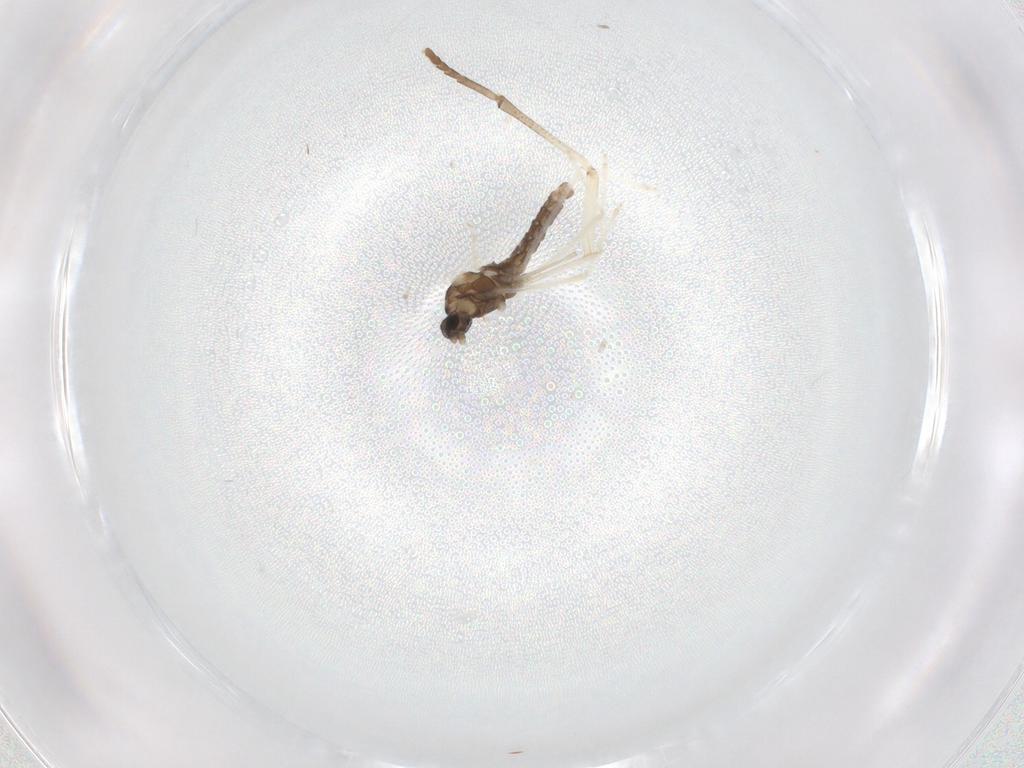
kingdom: Animalia
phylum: Arthropoda
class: Insecta
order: Diptera
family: Cecidomyiidae
